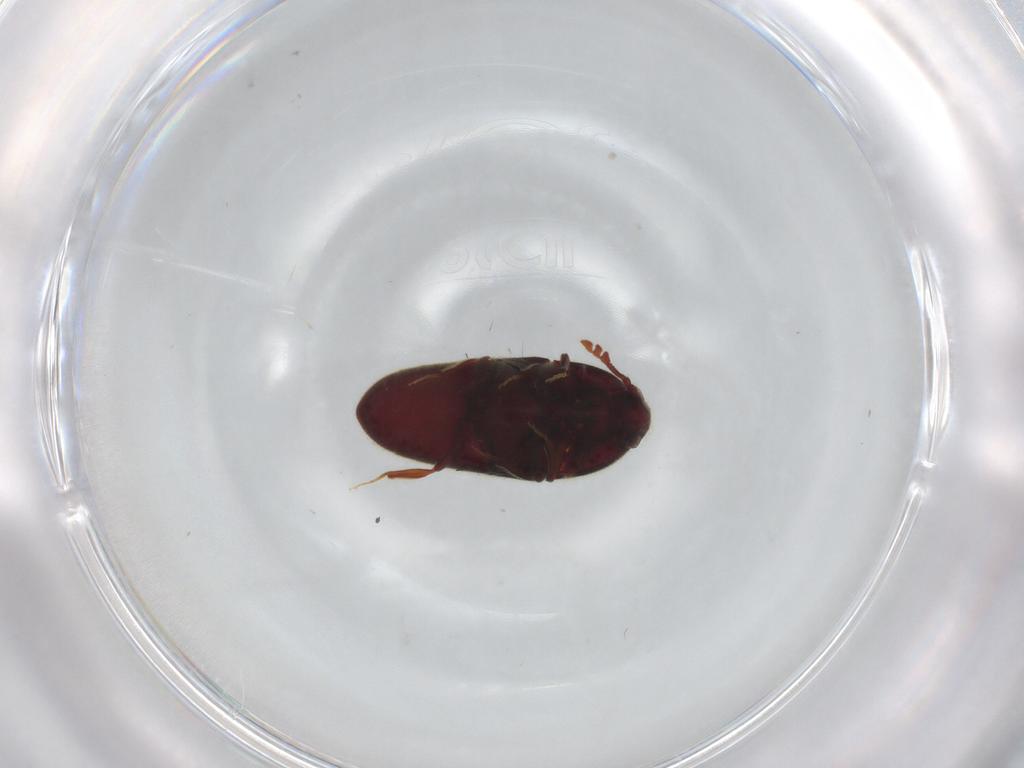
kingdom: Animalia
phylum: Arthropoda
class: Insecta
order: Coleoptera
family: Throscidae
